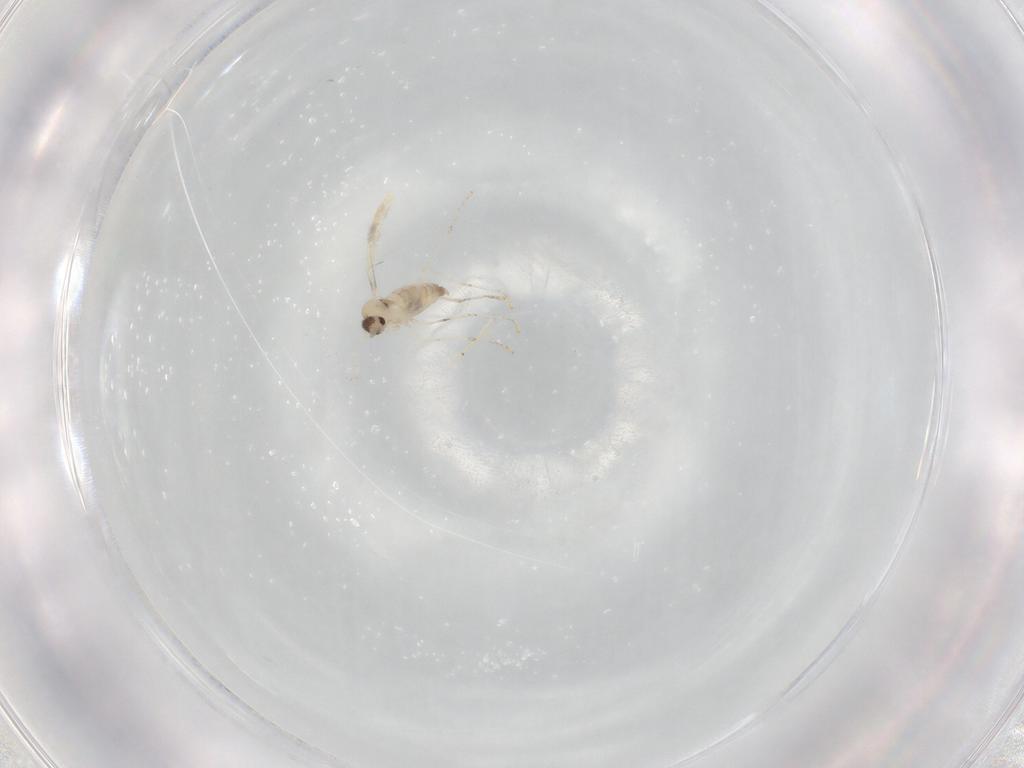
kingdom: Animalia
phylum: Arthropoda
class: Insecta
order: Diptera
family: Cecidomyiidae
